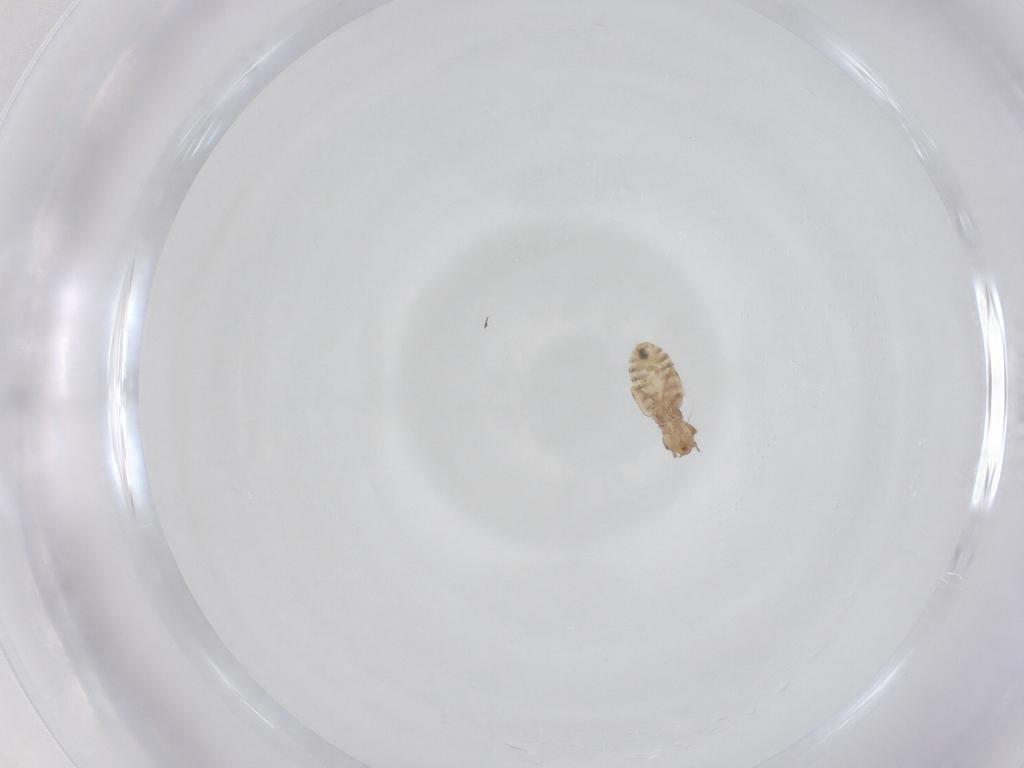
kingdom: Animalia
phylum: Arthropoda
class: Insecta
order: Psocodea
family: Liposcelididae
